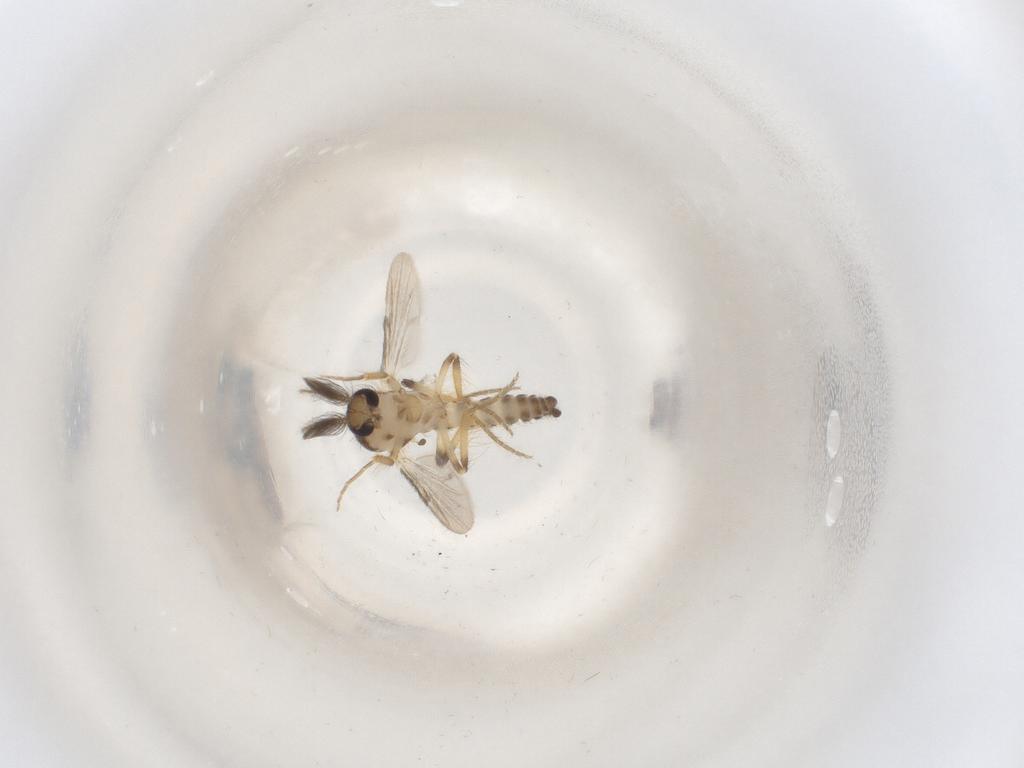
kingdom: Animalia
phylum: Arthropoda
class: Insecta
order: Diptera
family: Ceratopogonidae
